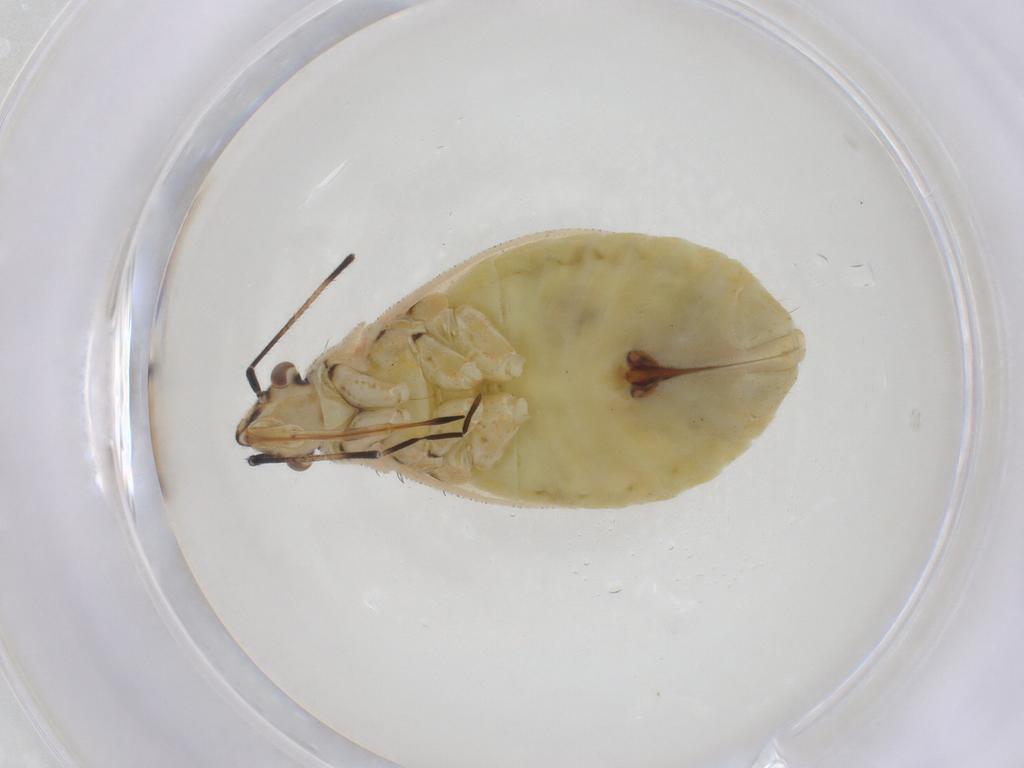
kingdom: Animalia
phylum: Arthropoda
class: Insecta
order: Hemiptera
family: Miridae
